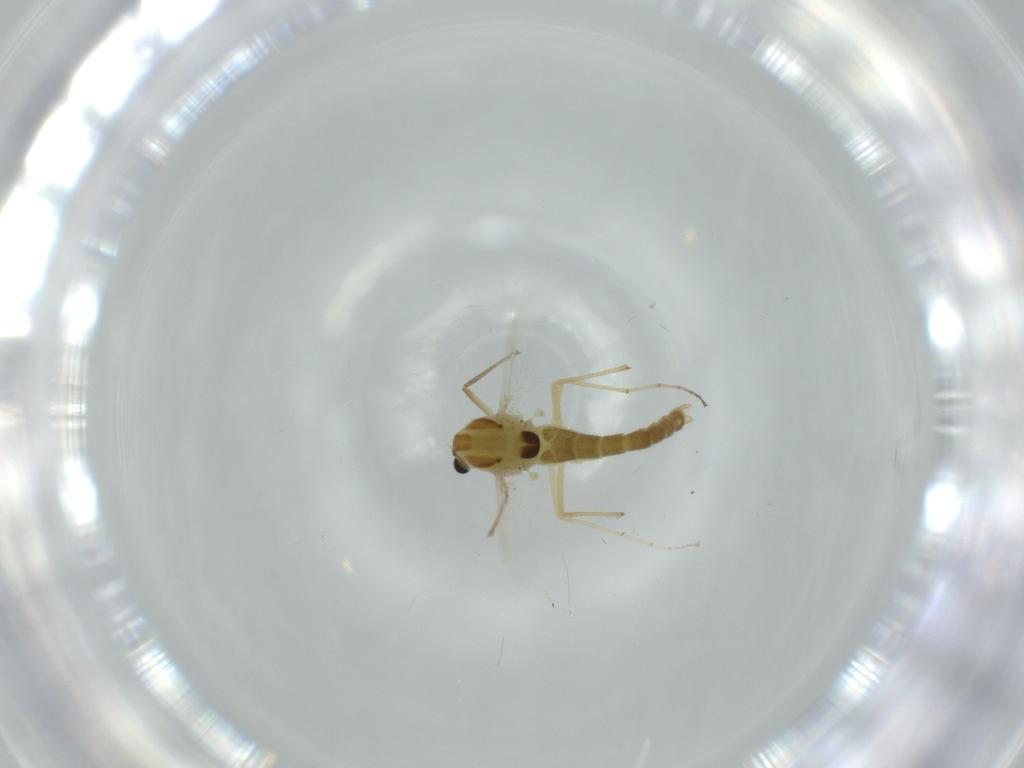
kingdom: Animalia
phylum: Arthropoda
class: Insecta
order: Diptera
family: Chironomidae
